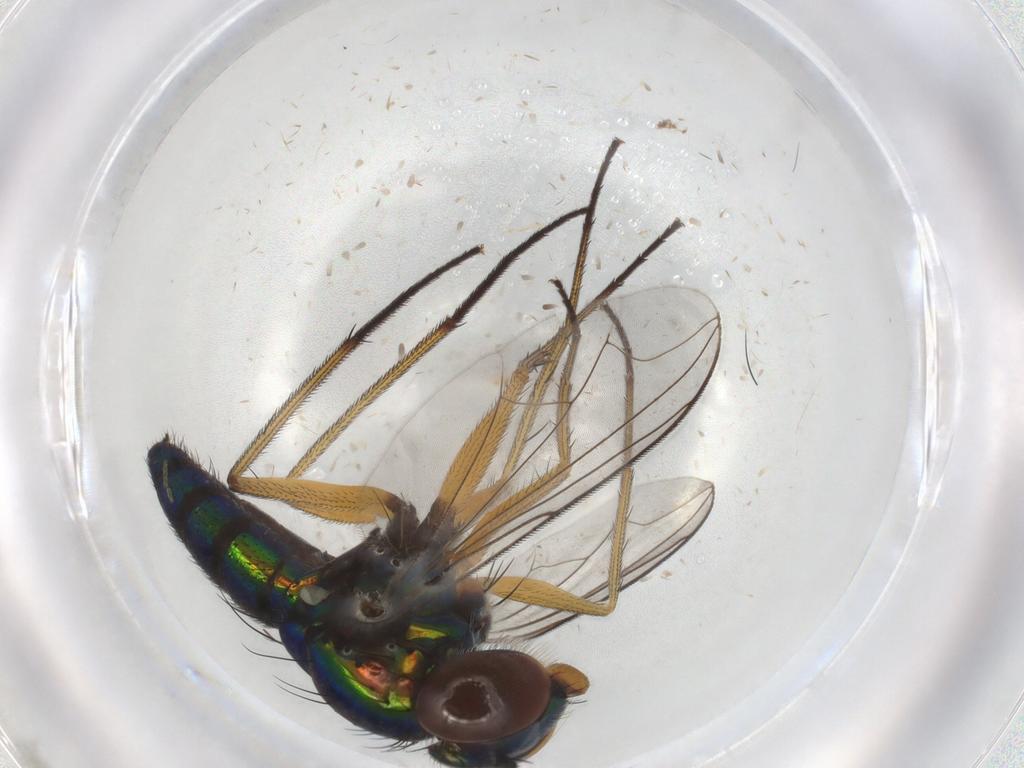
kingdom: Animalia
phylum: Arthropoda
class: Insecta
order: Diptera
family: Dolichopodidae
